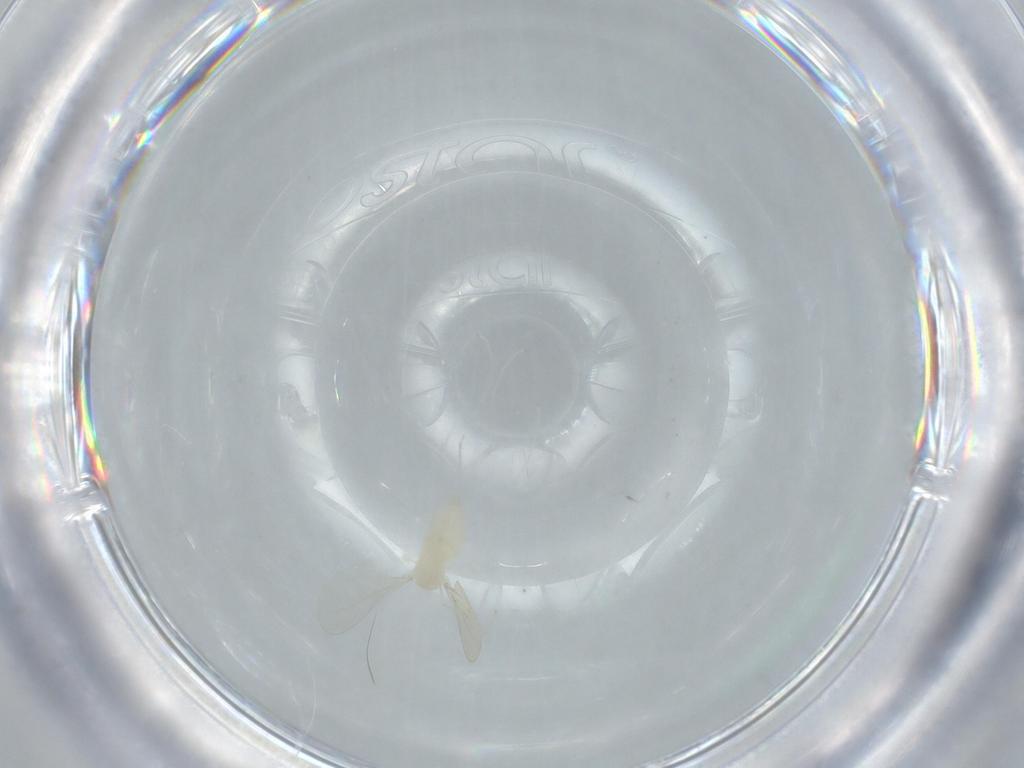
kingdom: Animalia
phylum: Arthropoda
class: Insecta
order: Diptera
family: Cecidomyiidae
